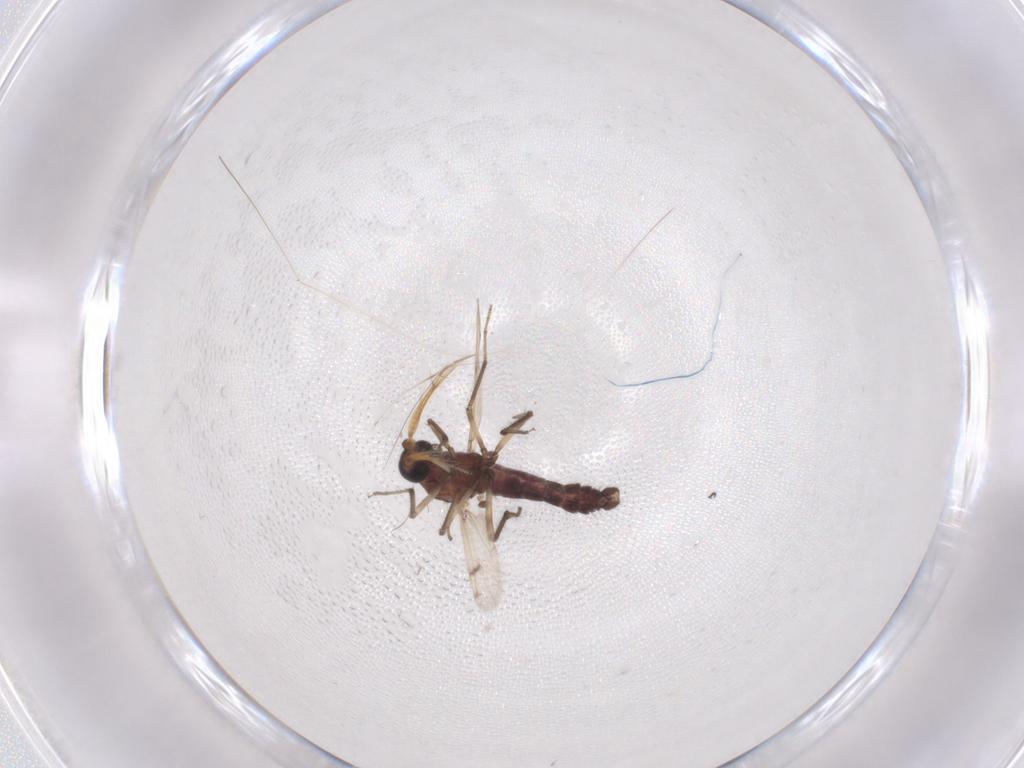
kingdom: Animalia
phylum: Arthropoda
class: Insecta
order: Diptera
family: Ceratopogonidae
